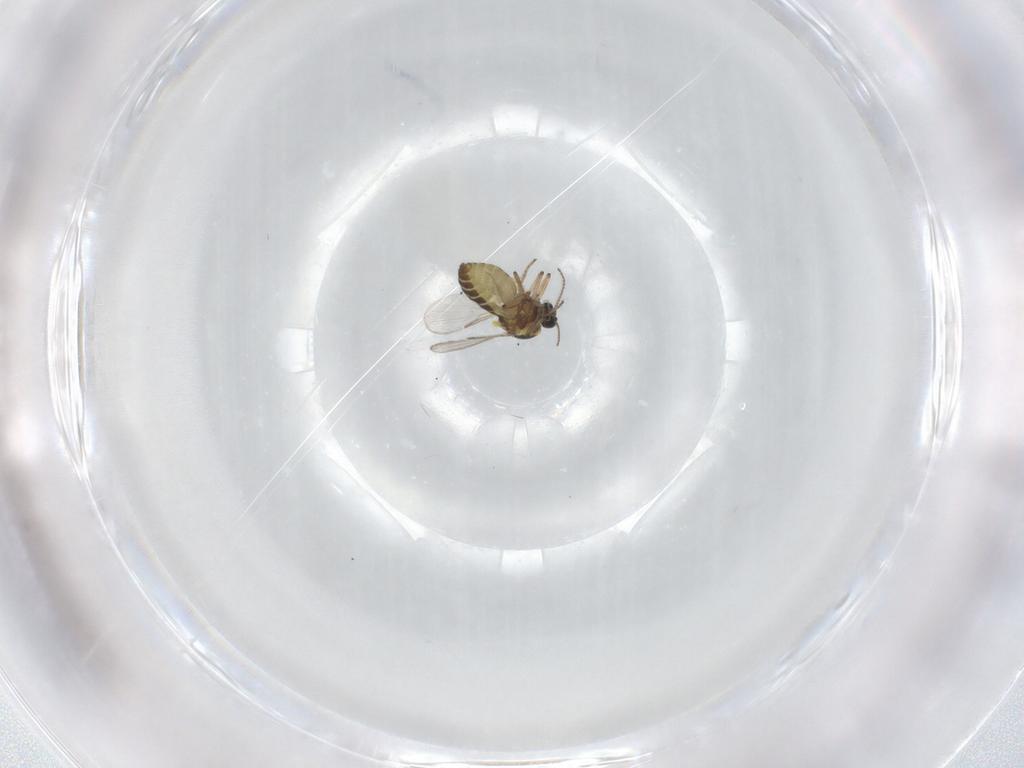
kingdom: Animalia
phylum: Arthropoda
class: Insecta
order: Diptera
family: Ceratopogonidae
